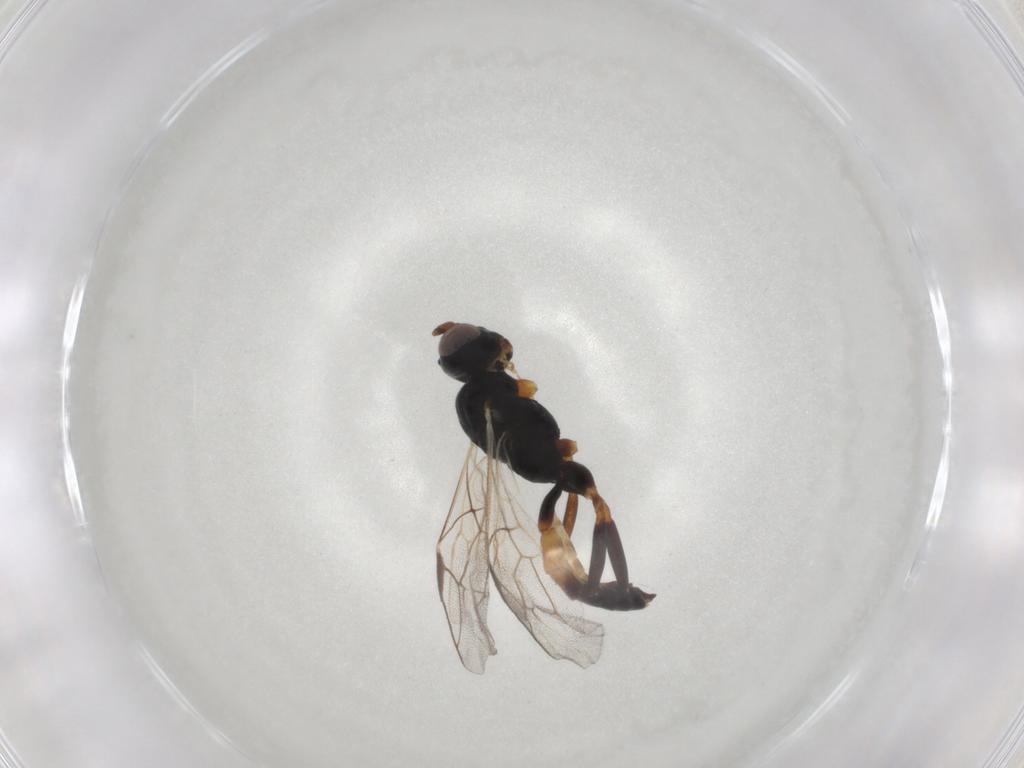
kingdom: Animalia
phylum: Arthropoda
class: Insecta
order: Hymenoptera
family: Ichneumonidae
